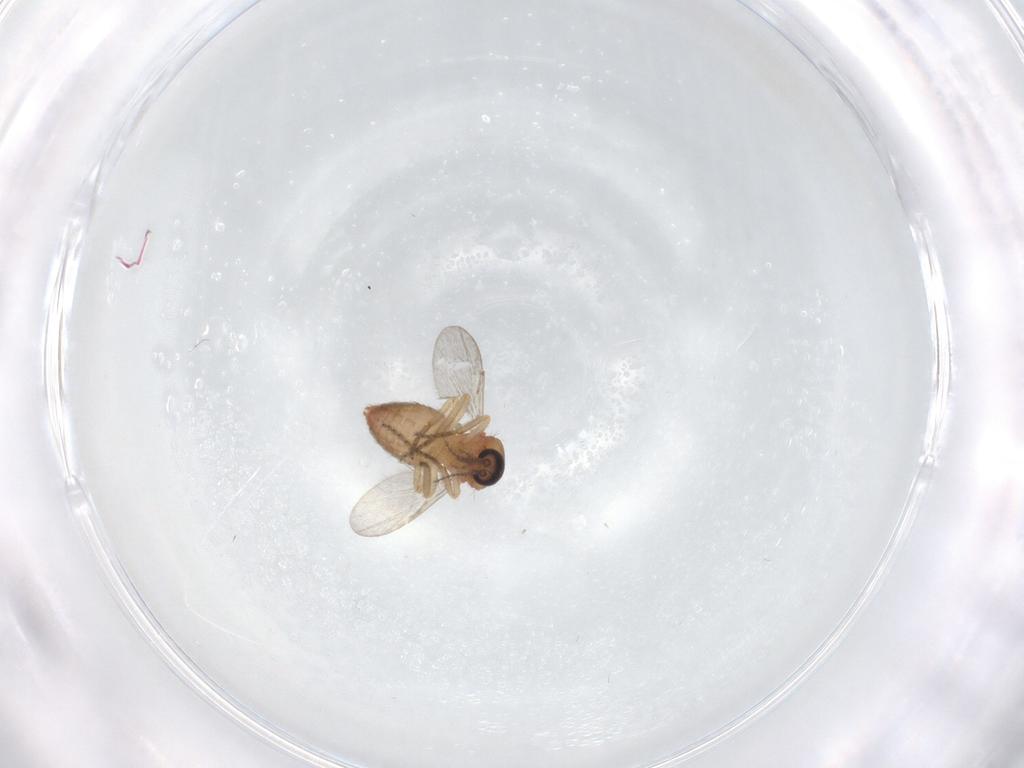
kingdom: Animalia
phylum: Arthropoda
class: Insecta
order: Diptera
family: Ceratopogonidae
